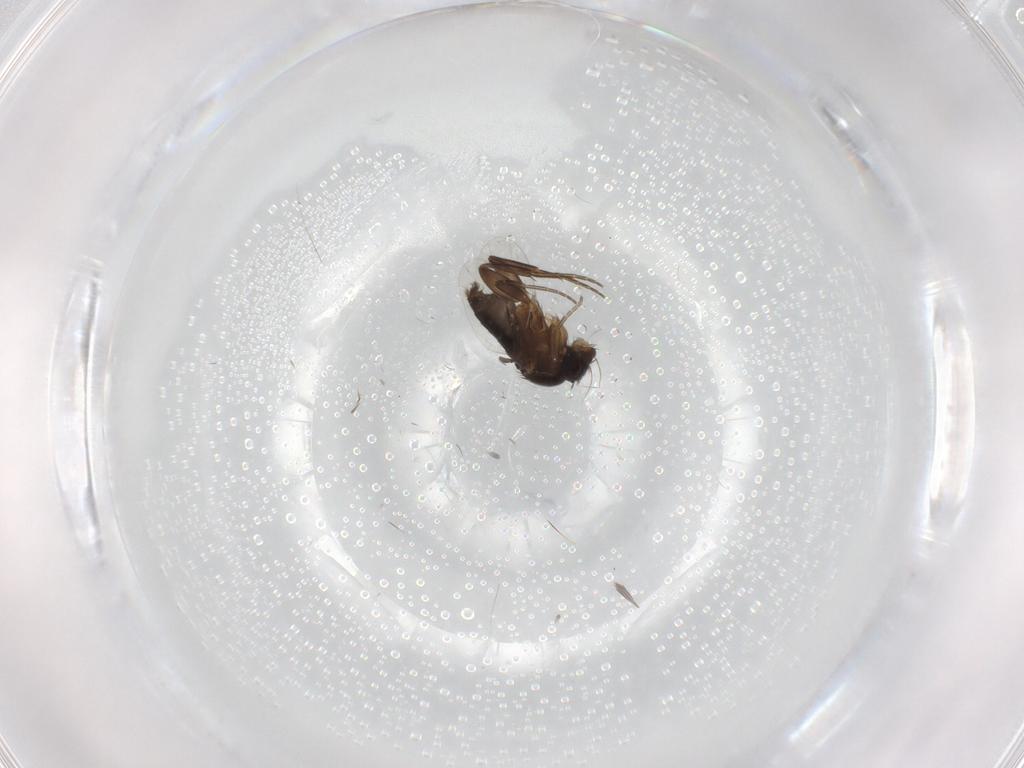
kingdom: Animalia
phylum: Arthropoda
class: Insecta
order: Diptera
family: Phoridae
